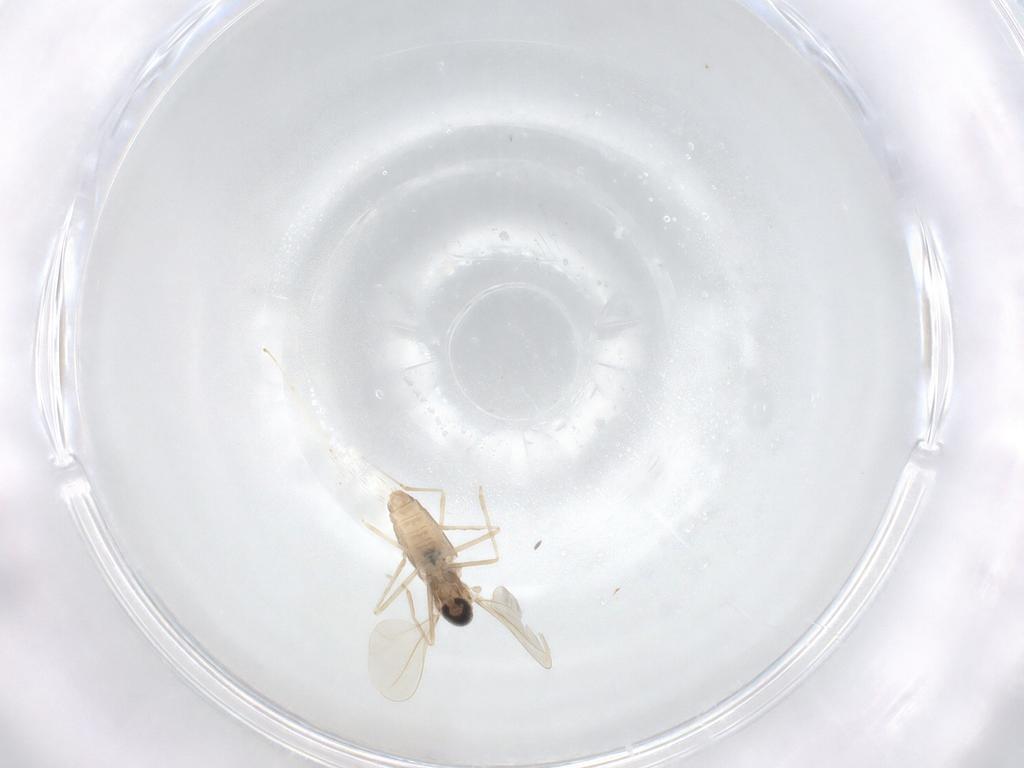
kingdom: Animalia
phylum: Arthropoda
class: Insecta
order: Diptera
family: Cecidomyiidae
